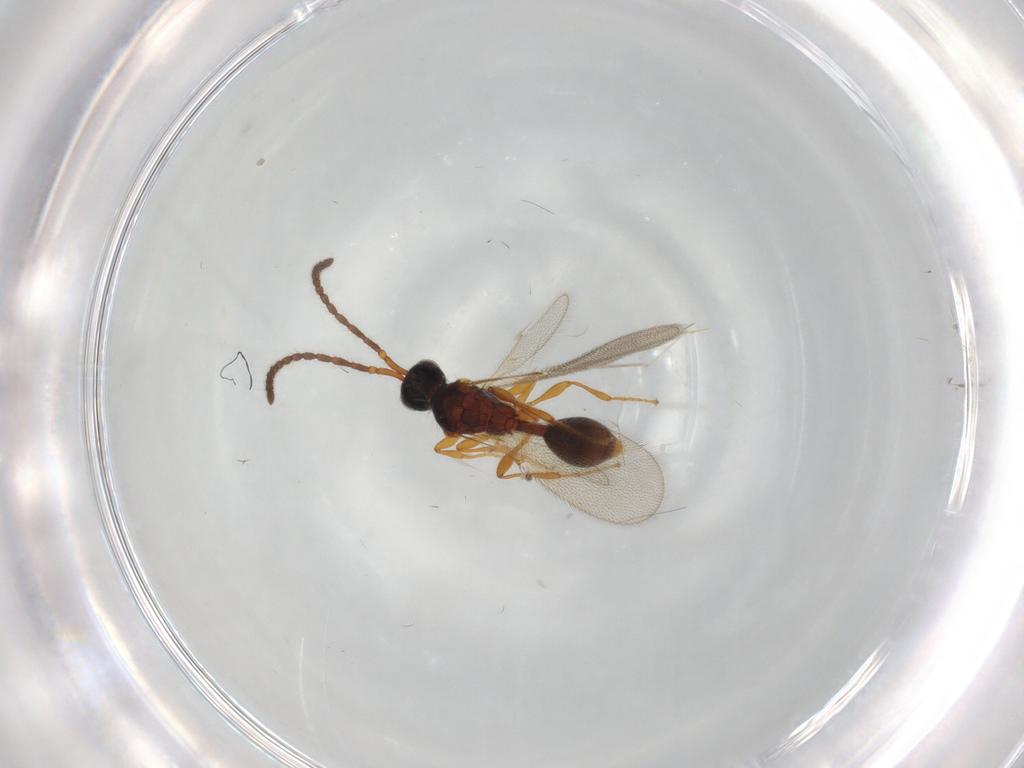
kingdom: Animalia
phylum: Arthropoda
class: Insecta
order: Hymenoptera
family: Diapriidae
